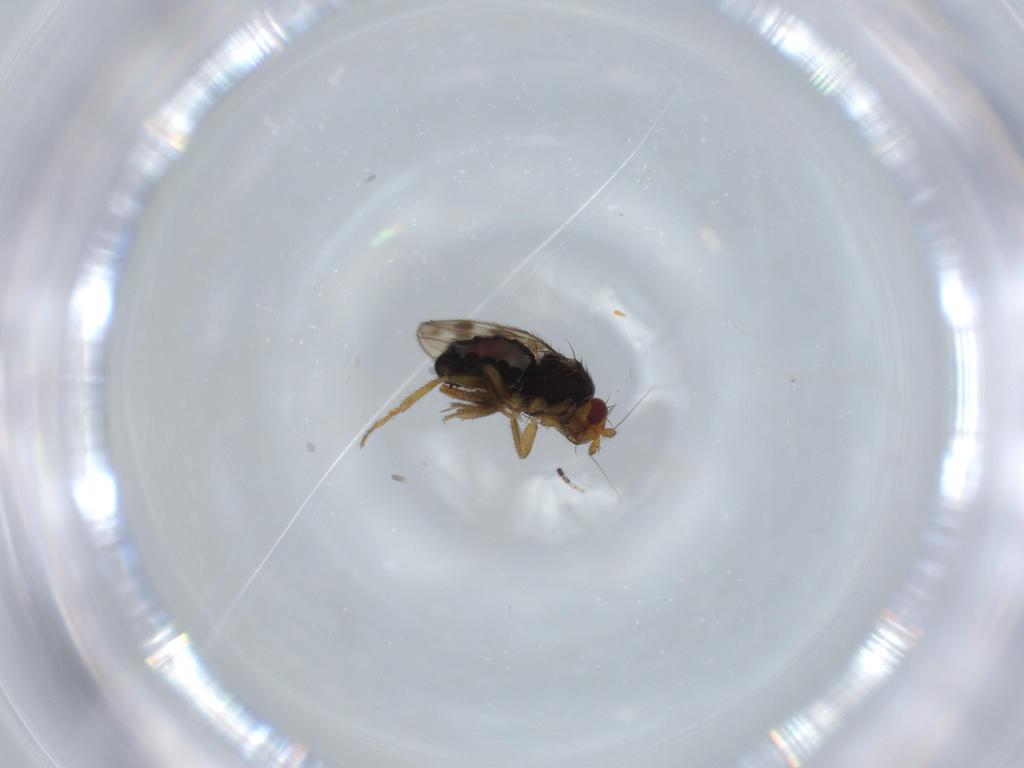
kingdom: Animalia
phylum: Arthropoda
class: Insecta
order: Diptera
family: Sphaeroceridae
